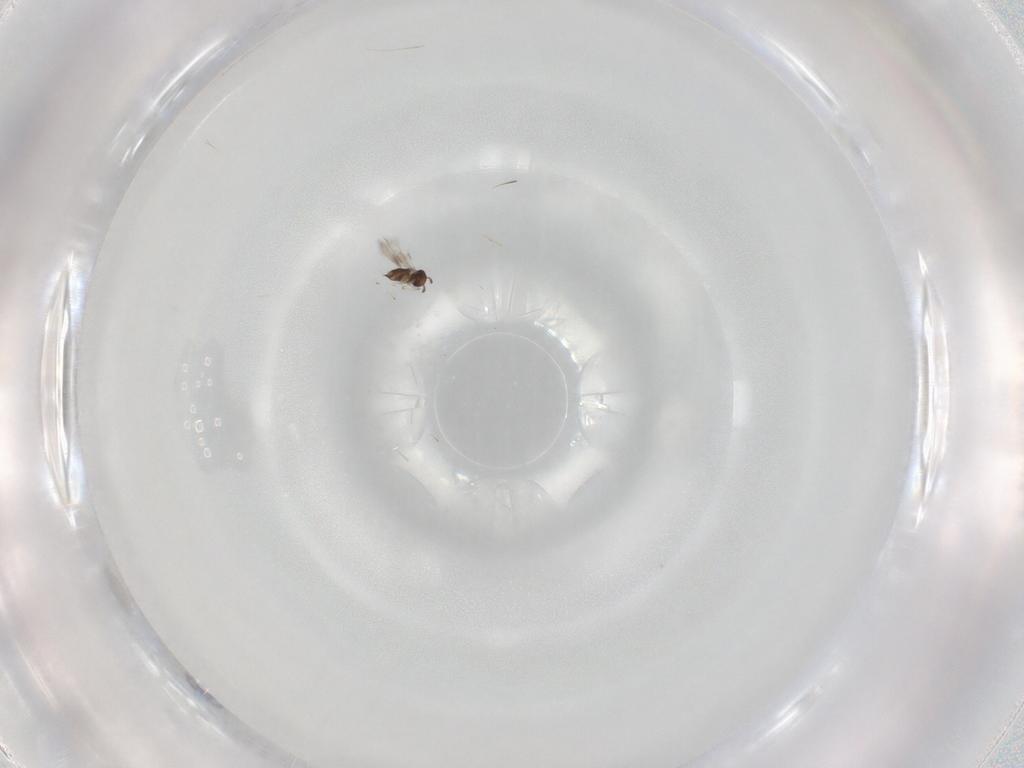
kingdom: Animalia
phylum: Arthropoda
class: Insecta
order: Hymenoptera
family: Azotidae
